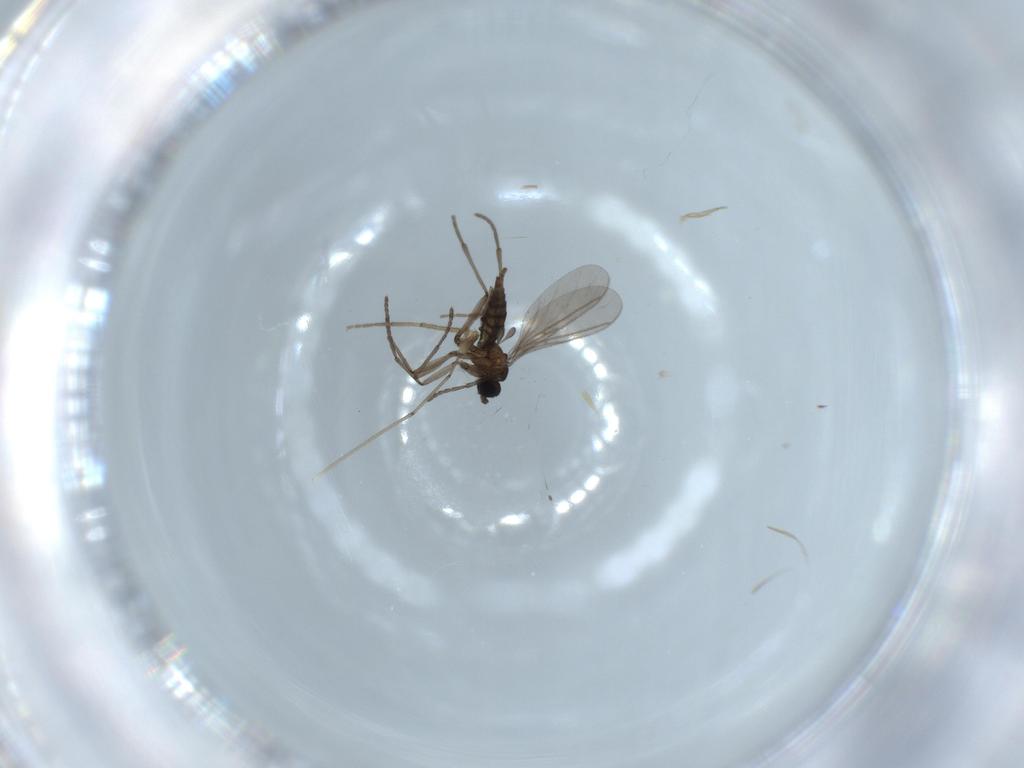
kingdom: Animalia
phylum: Arthropoda
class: Insecta
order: Diptera
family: Sciaridae
